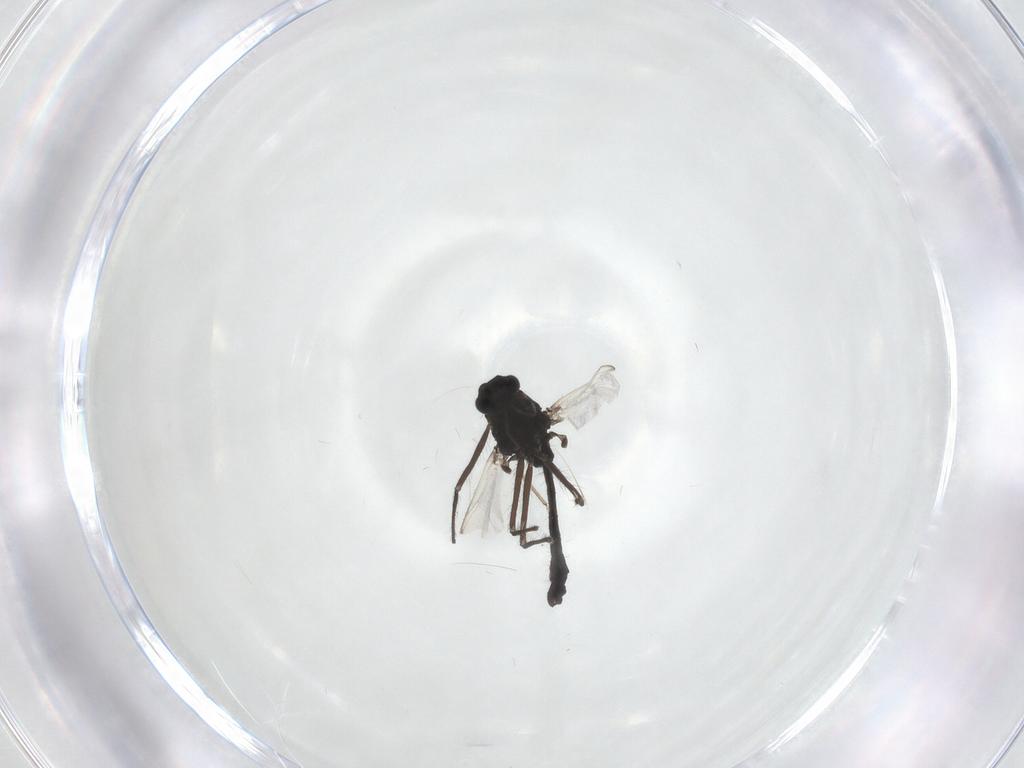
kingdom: Animalia
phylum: Arthropoda
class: Insecta
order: Diptera
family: Chironomidae
